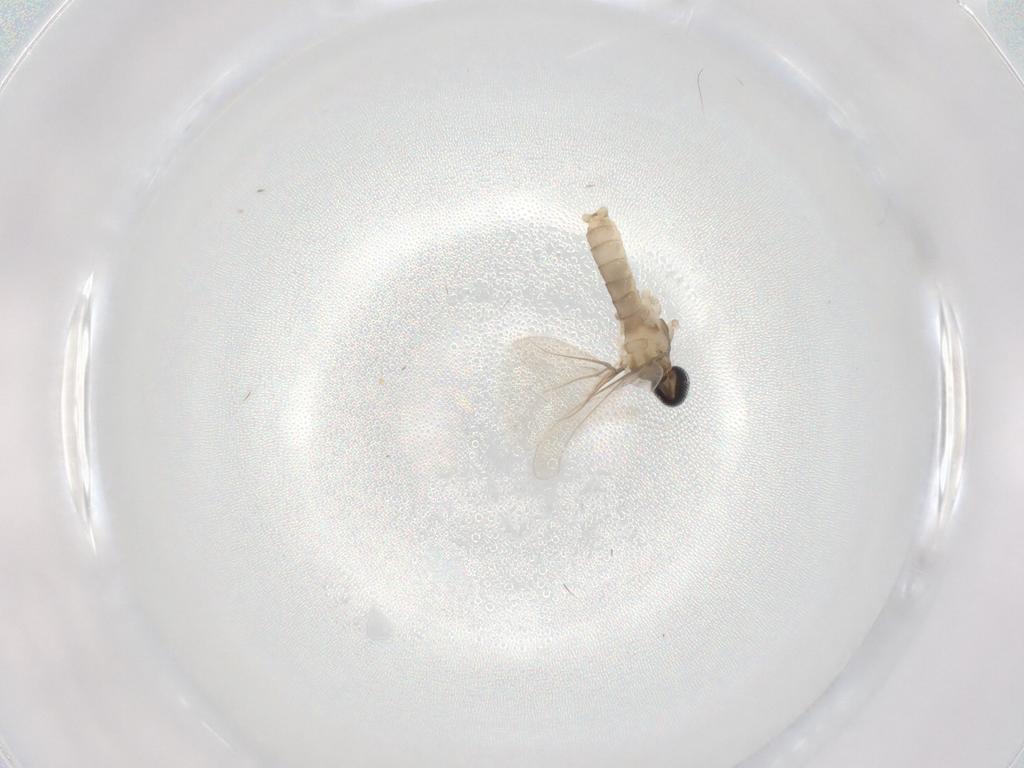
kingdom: Animalia
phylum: Arthropoda
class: Insecta
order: Diptera
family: Cecidomyiidae
